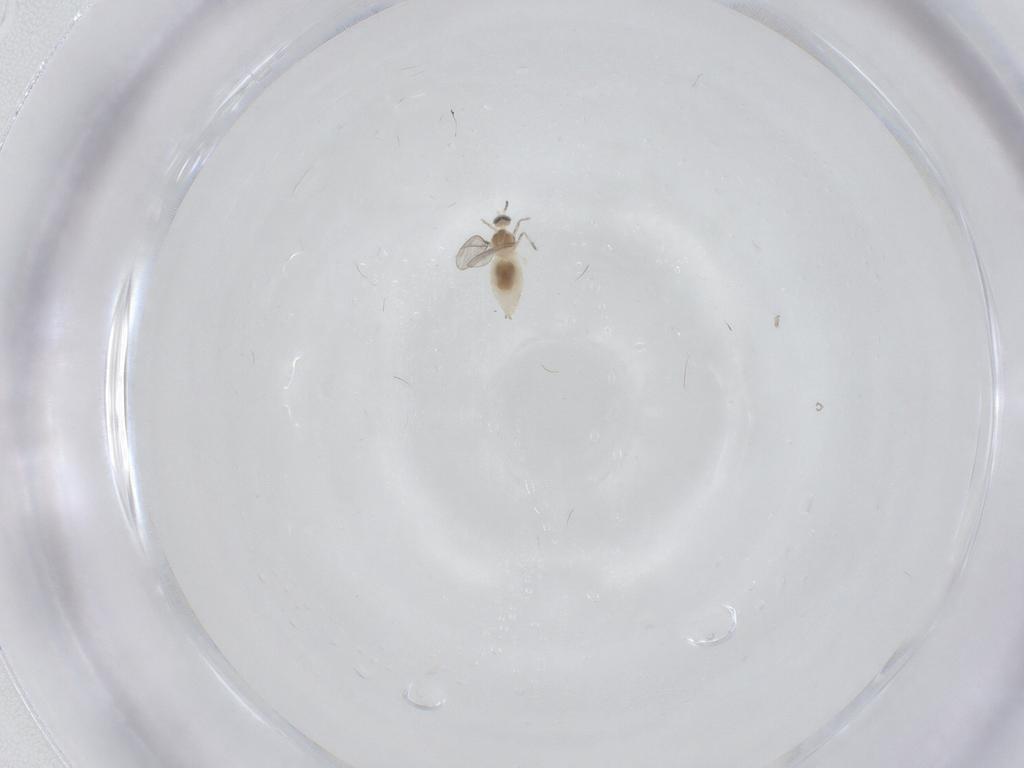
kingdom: Animalia
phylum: Arthropoda
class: Insecta
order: Diptera
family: Cecidomyiidae
